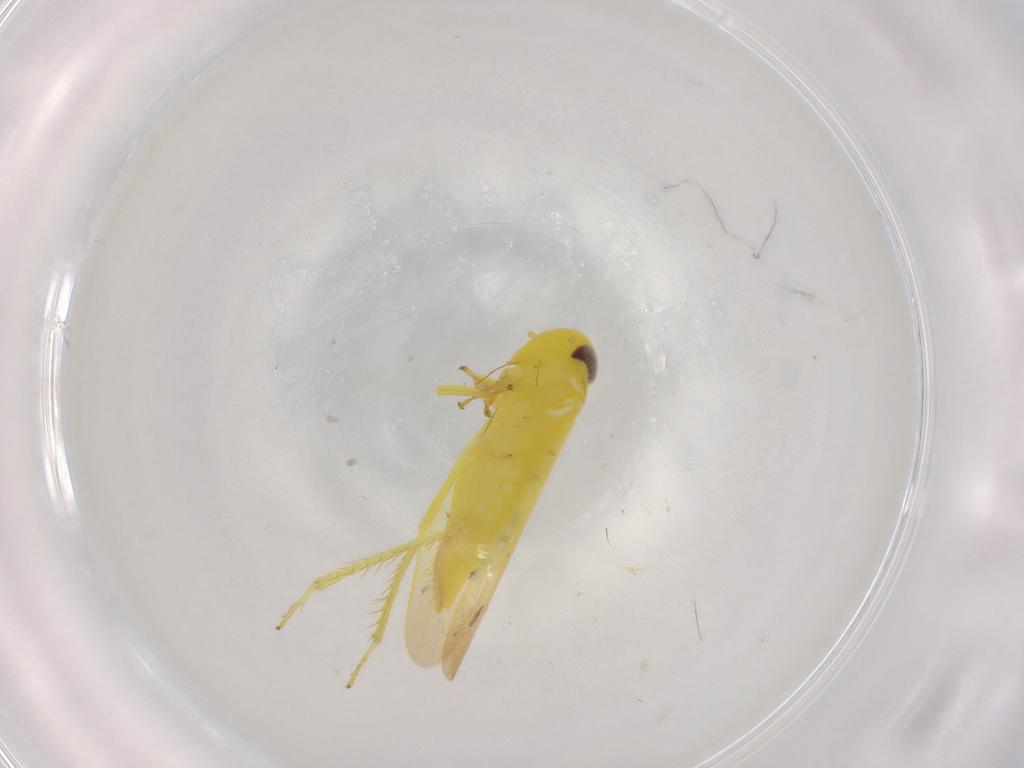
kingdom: Animalia
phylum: Arthropoda
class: Insecta
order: Hemiptera
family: Cicadellidae
